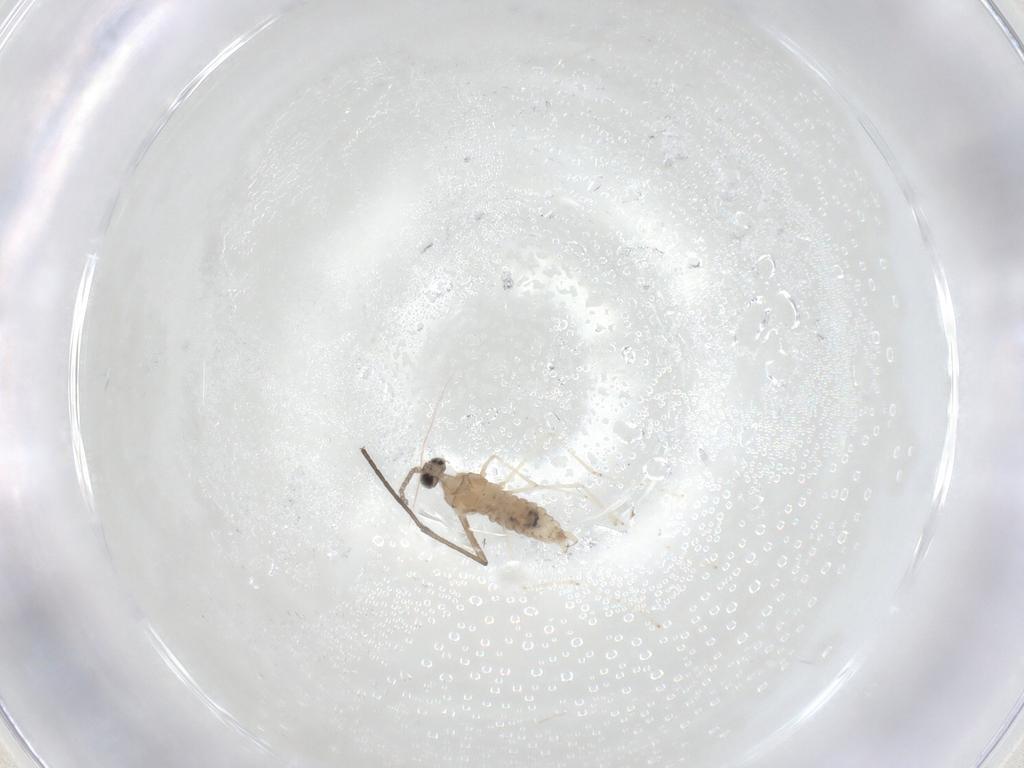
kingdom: Animalia
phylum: Arthropoda
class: Insecta
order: Diptera
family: Cecidomyiidae
